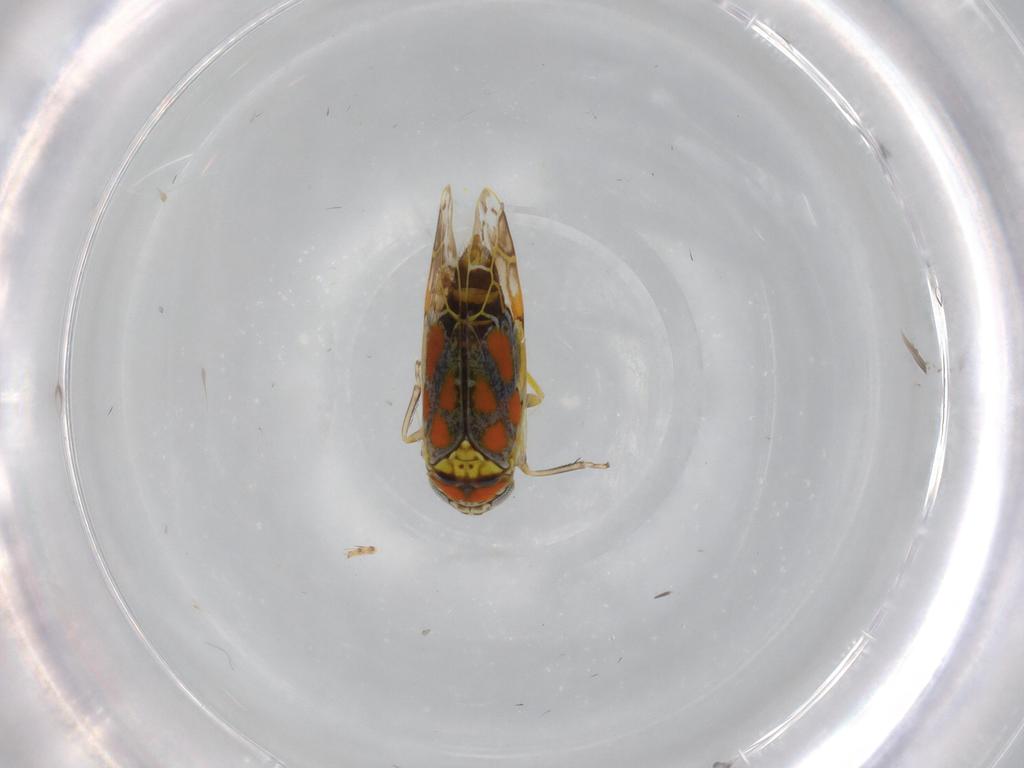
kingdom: Animalia
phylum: Arthropoda
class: Insecta
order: Hemiptera
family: Cicadellidae
